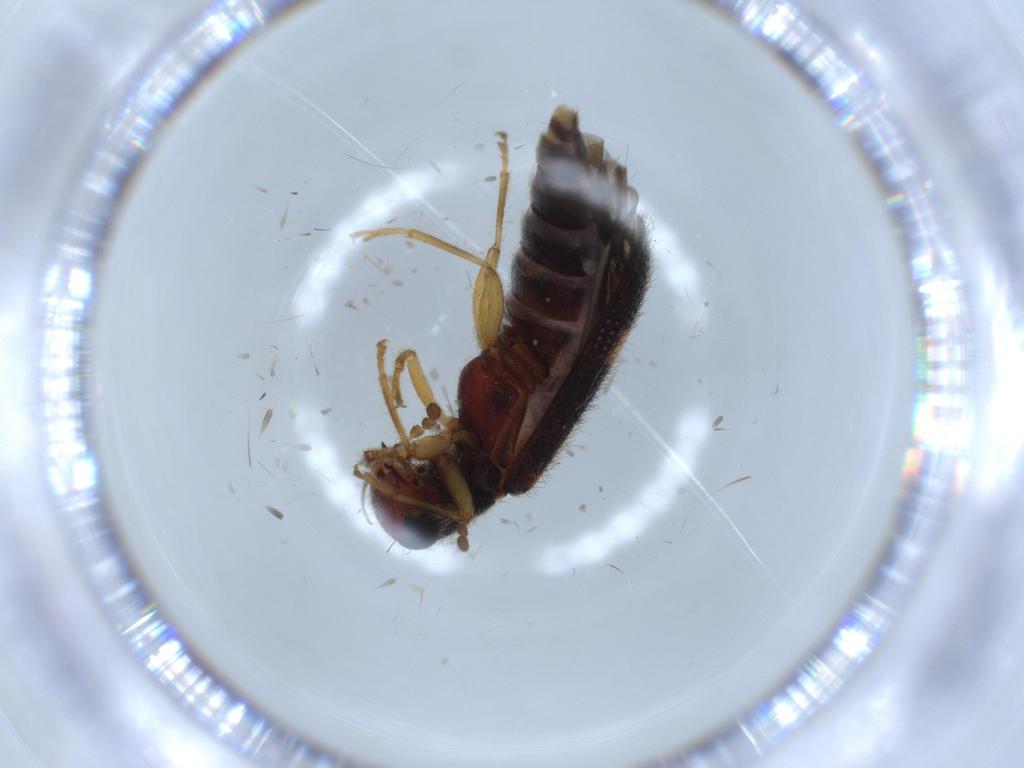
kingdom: Animalia
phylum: Arthropoda
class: Insecta
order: Coleoptera
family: Cleridae
